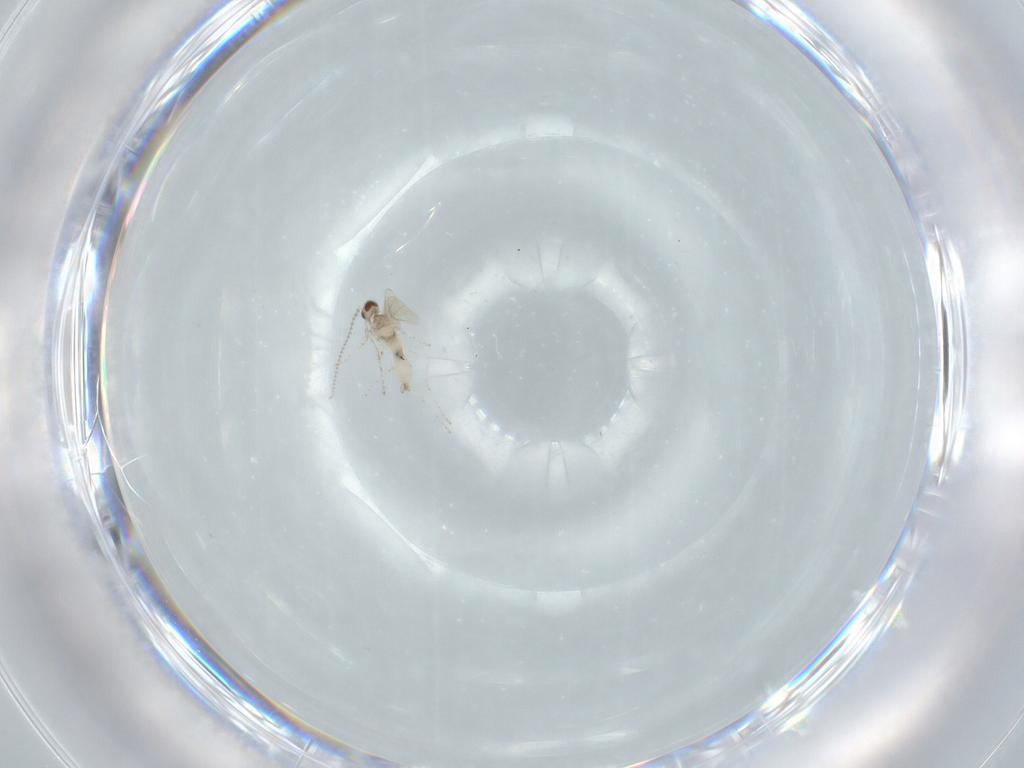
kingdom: Animalia
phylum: Arthropoda
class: Insecta
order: Diptera
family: Phoridae
